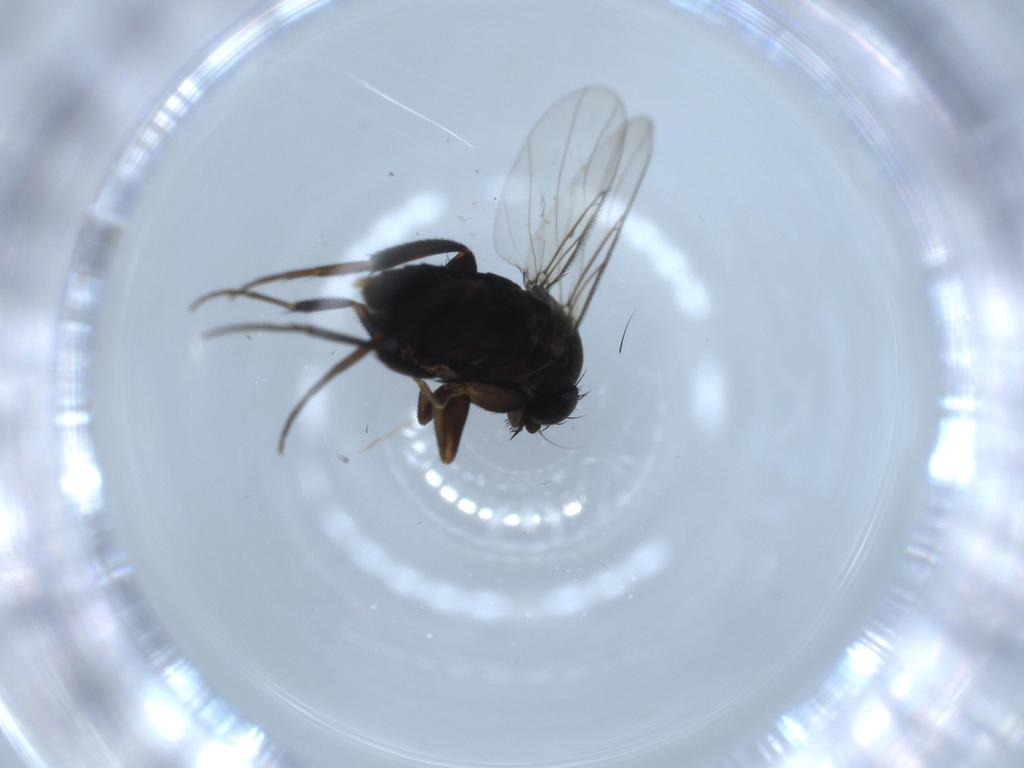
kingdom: Animalia
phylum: Arthropoda
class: Insecta
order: Diptera
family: Phoridae
